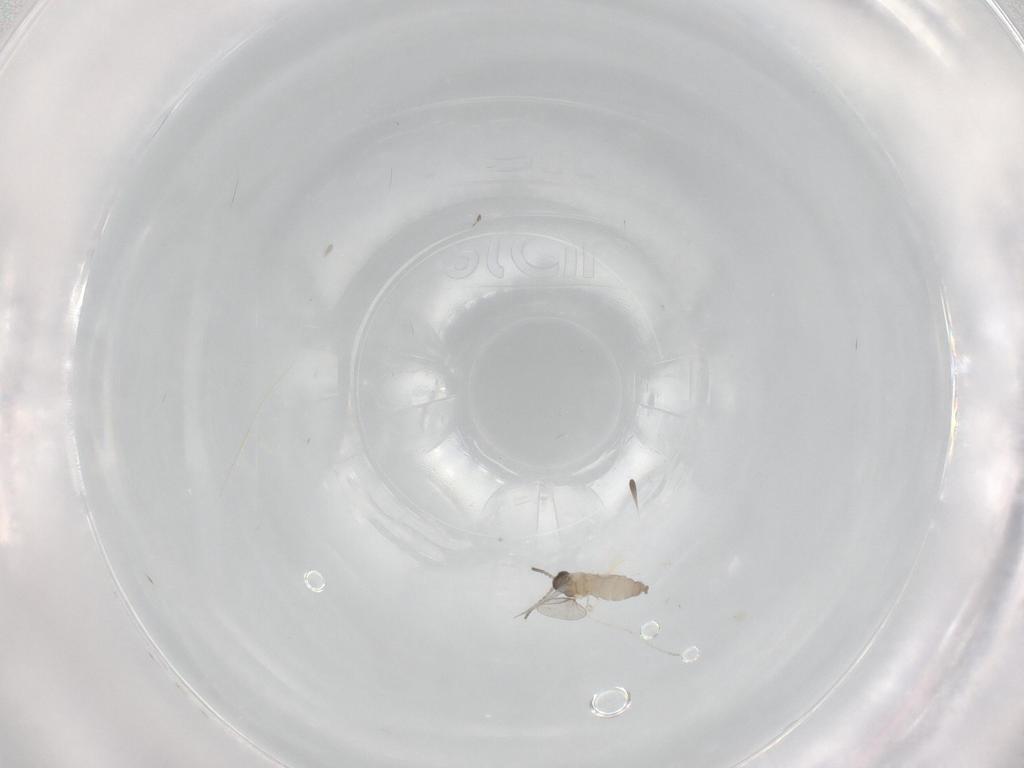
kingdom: Animalia
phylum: Arthropoda
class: Insecta
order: Diptera
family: Cecidomyiidae
